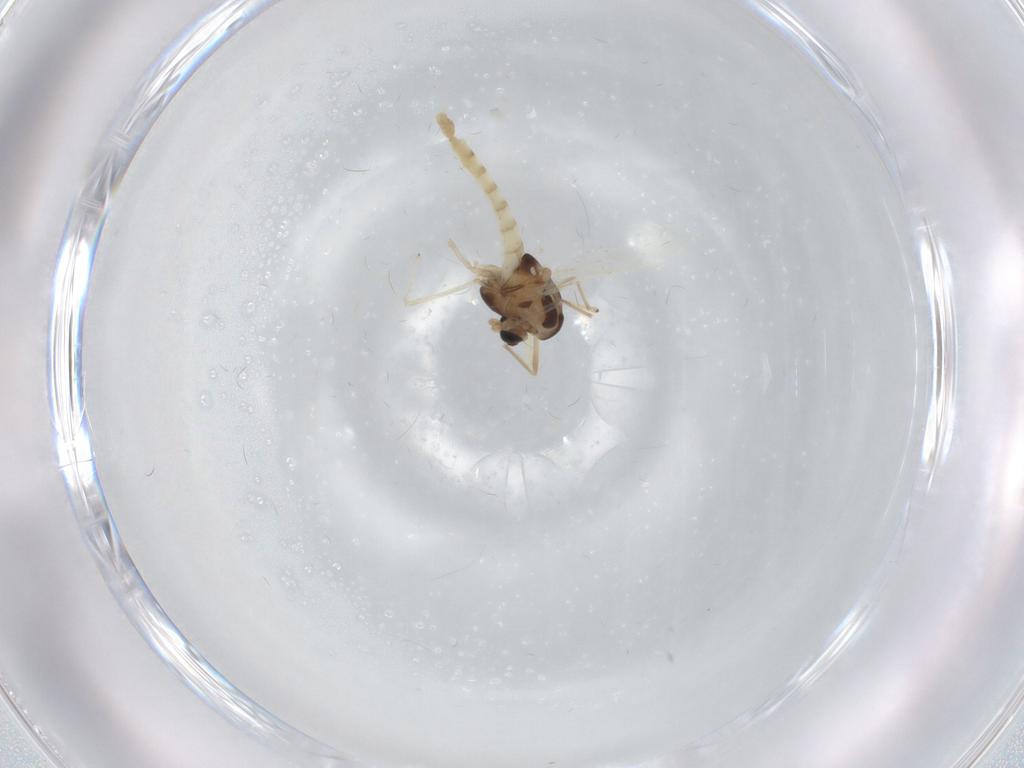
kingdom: Animalia
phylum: Arthropoda
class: Insecta
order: Diptera
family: Chironomidae
